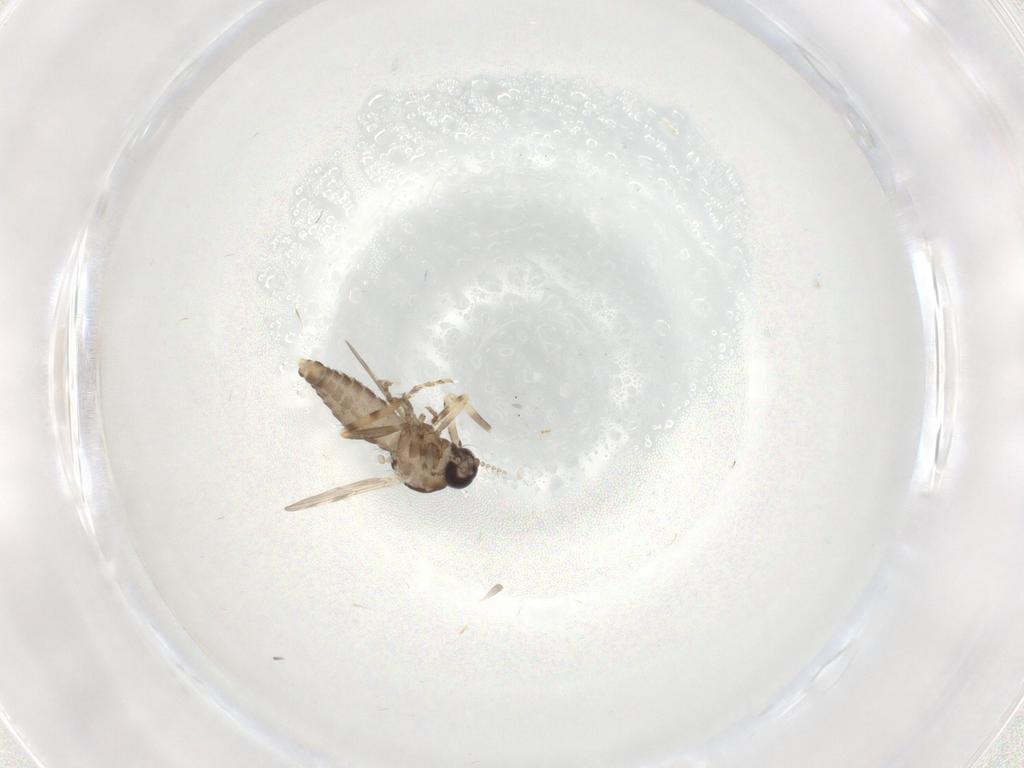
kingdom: Animalia
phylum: Arthropoda
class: Insecta
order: Diptera
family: Ceratopogonidae
